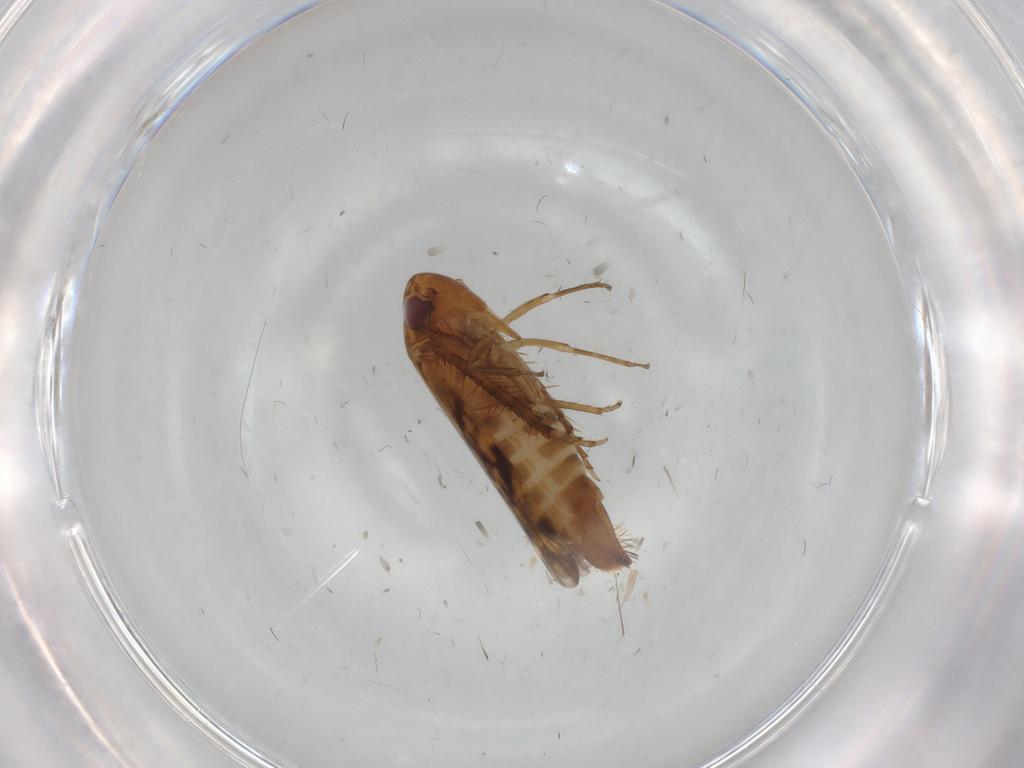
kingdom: Animalia
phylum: Arthropoda
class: Insecta
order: Hemiptera
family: Cicadellidae
